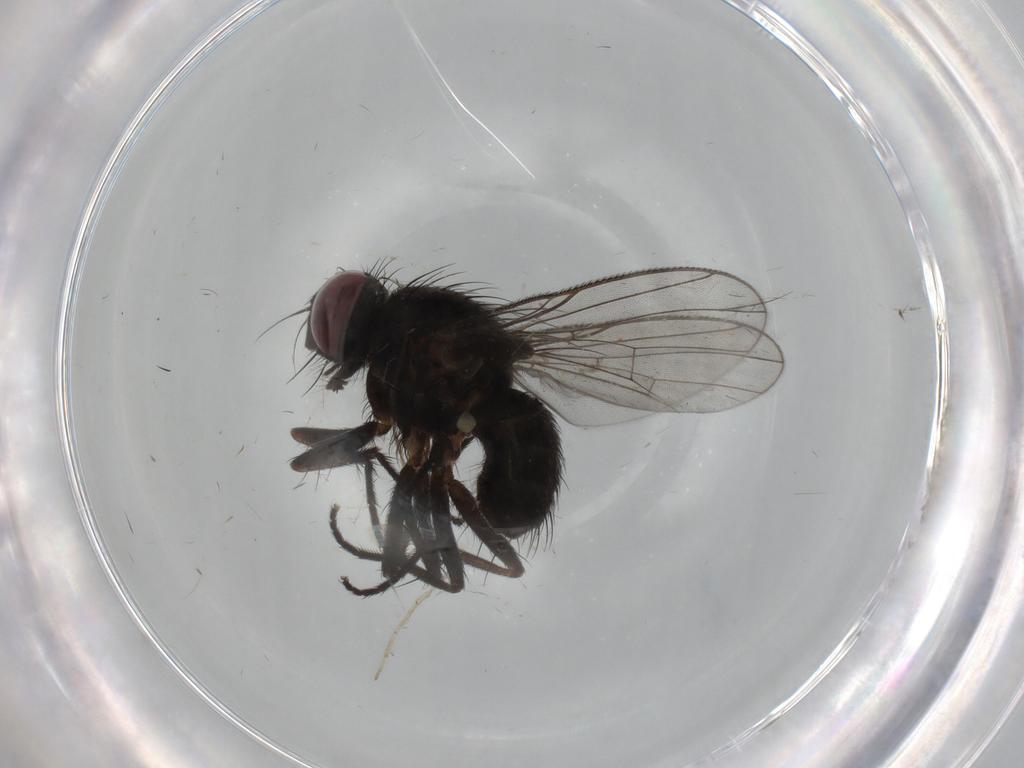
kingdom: Animalia
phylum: Arthropoda
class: Insecta
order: Diptera
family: Muscidae
